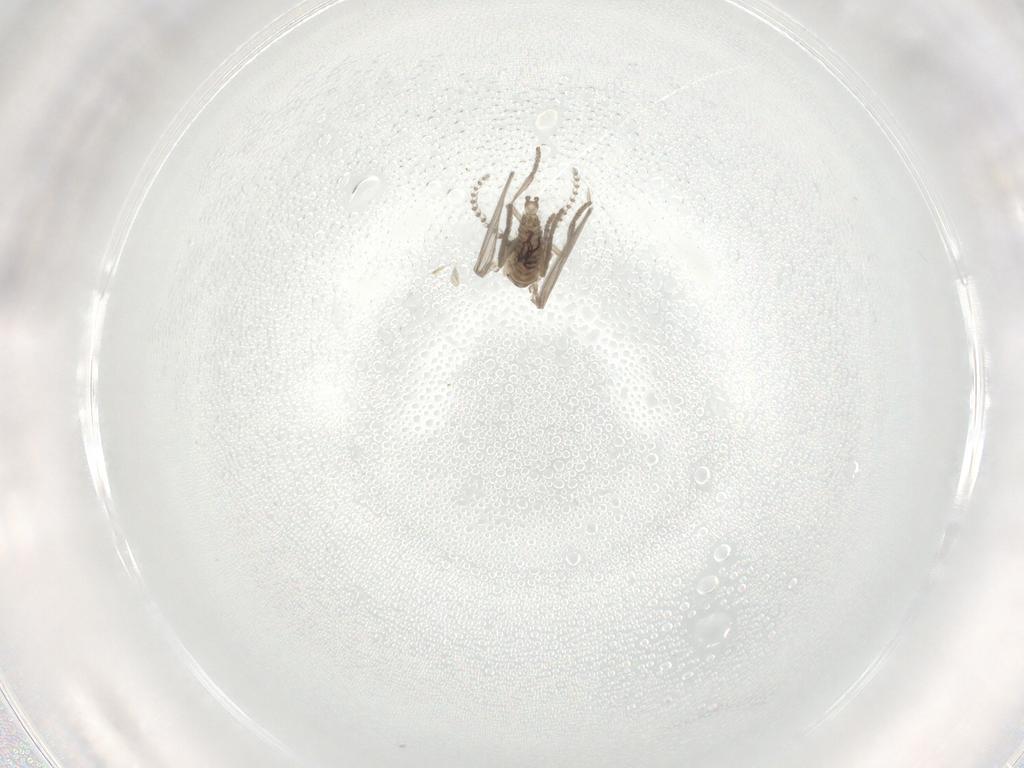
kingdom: Animalia
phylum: Arthropoda
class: Insecta
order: Diptera
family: Psychodidae
